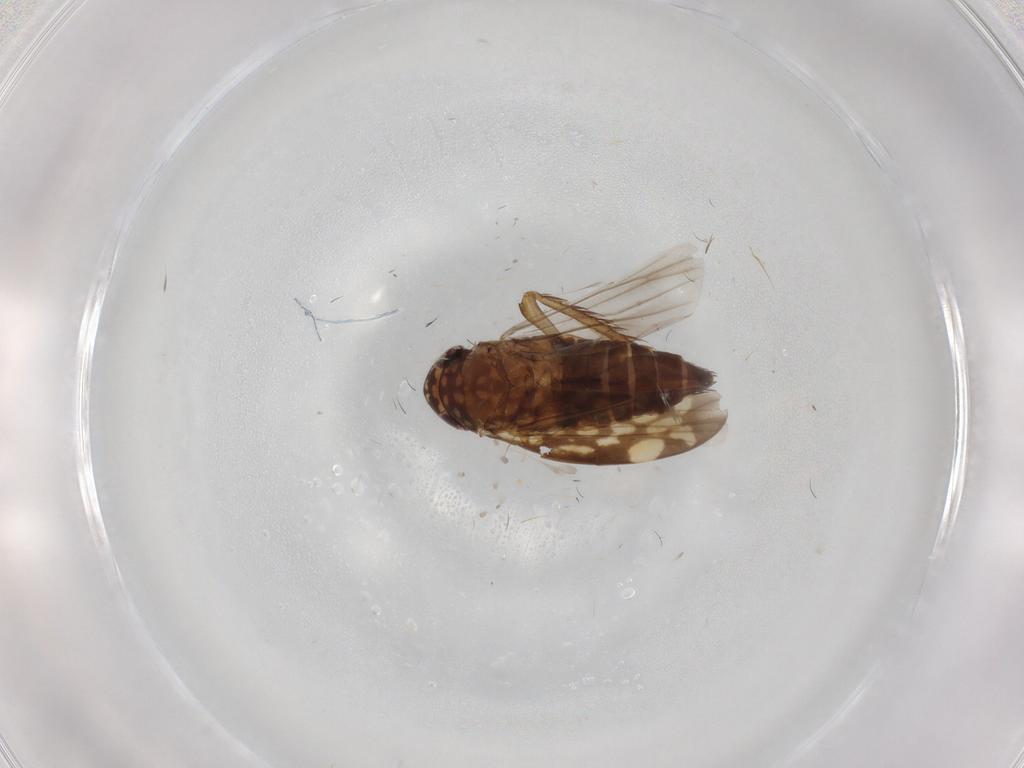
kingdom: Animalia
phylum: Arthropoda
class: Insecta
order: Hemiptera
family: Cicadellidae
